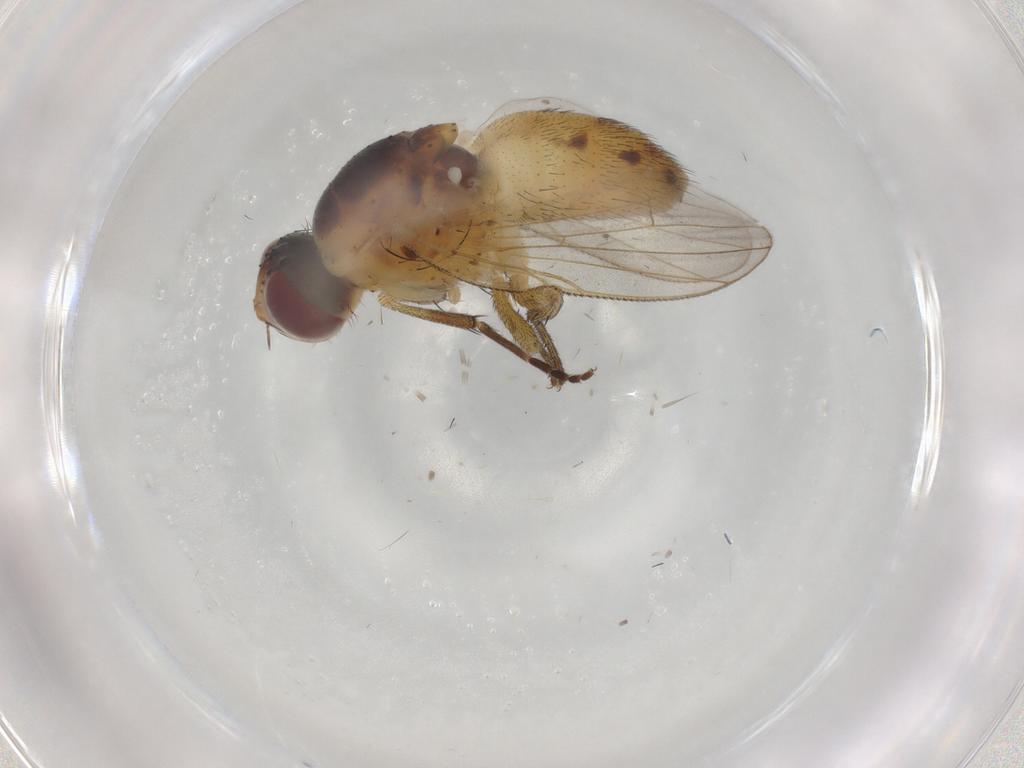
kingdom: Animalia
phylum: Arthropoda
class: Insecta
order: Diptera
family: Muscidae
